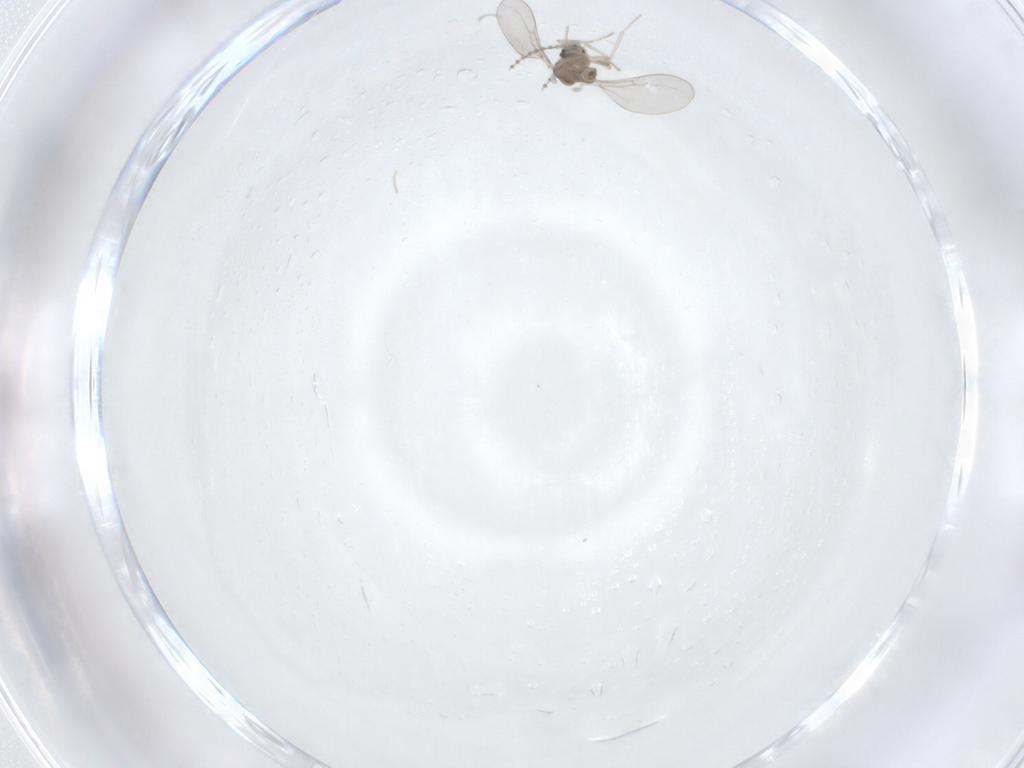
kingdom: Animalia
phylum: Arthropoda
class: Insecta
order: Diptera
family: Cecidomyiidae
